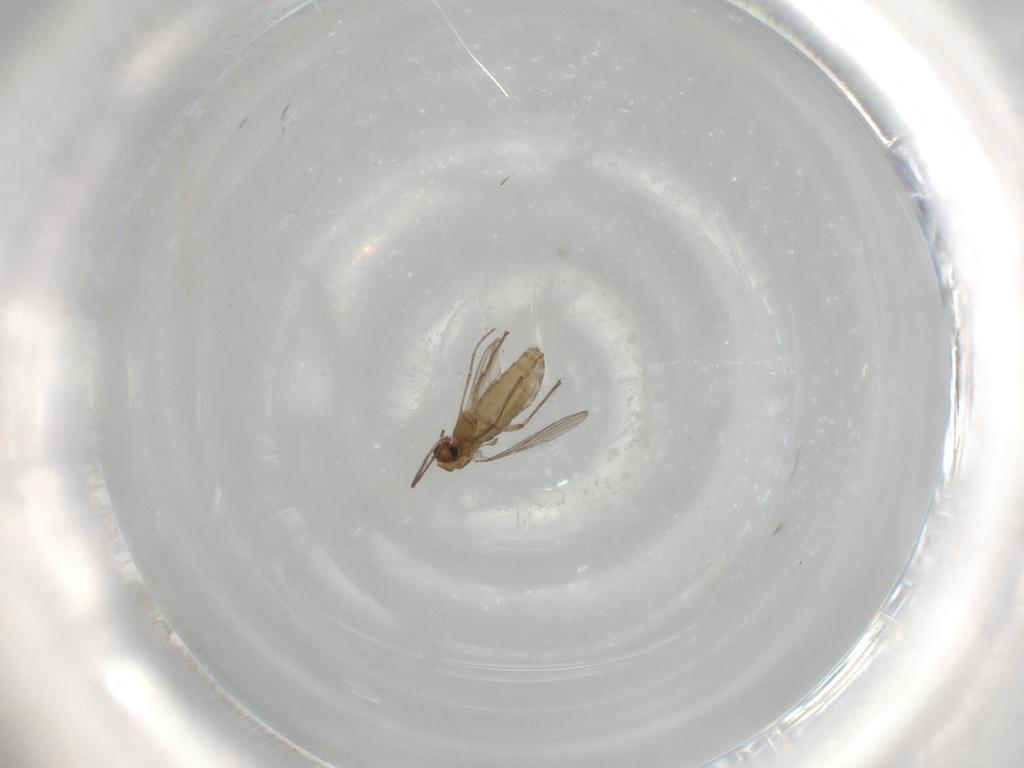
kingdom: Animalia
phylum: Arthropoda
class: Insecta
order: Diptera
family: Chironomidae
